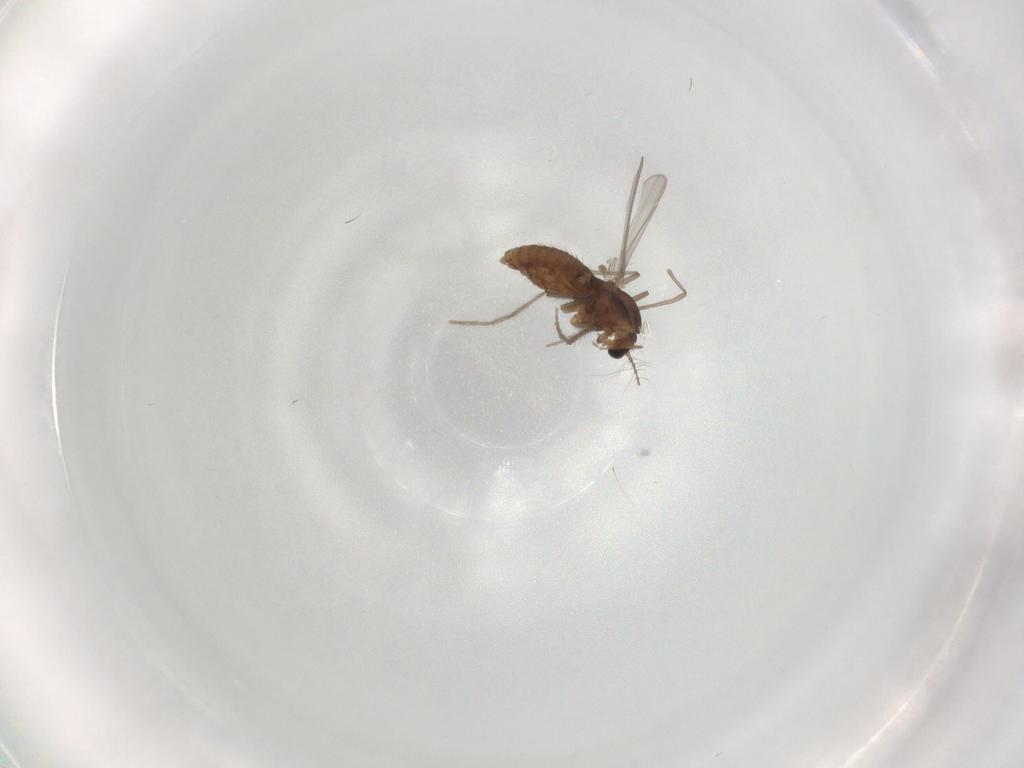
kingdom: Animalia
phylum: Arthropoda
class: Insecta
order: Diptera
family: Chironomidae
